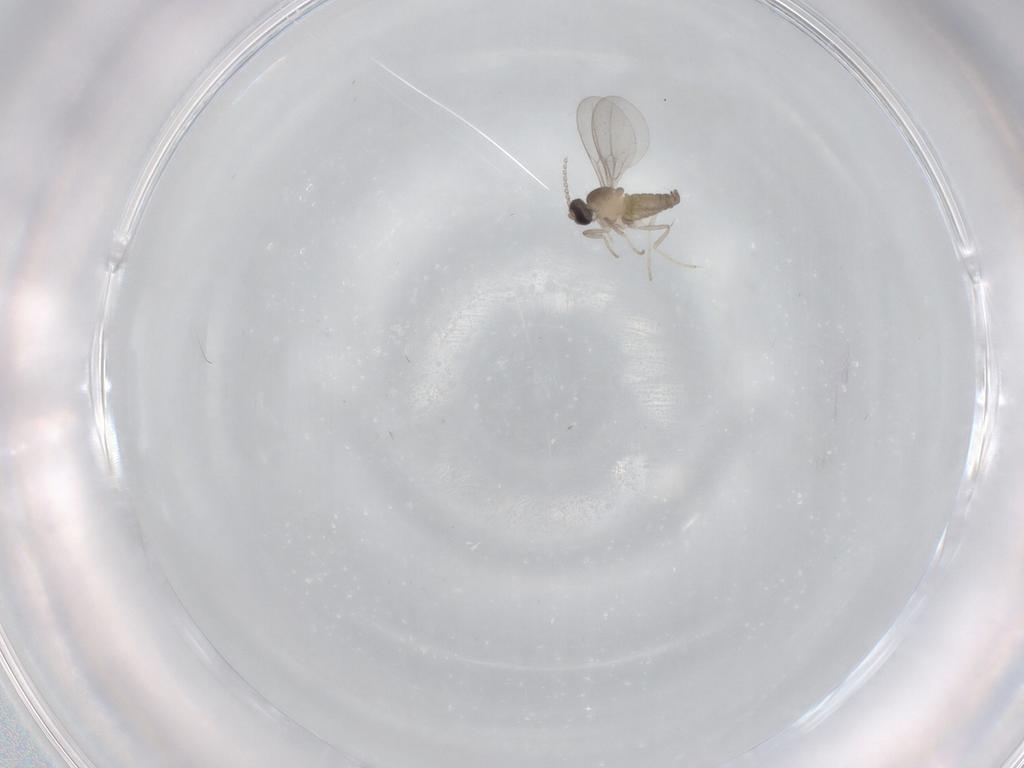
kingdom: Animalia
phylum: Arthropoda
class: Insecta
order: Diptera
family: Cecidomyiidae
